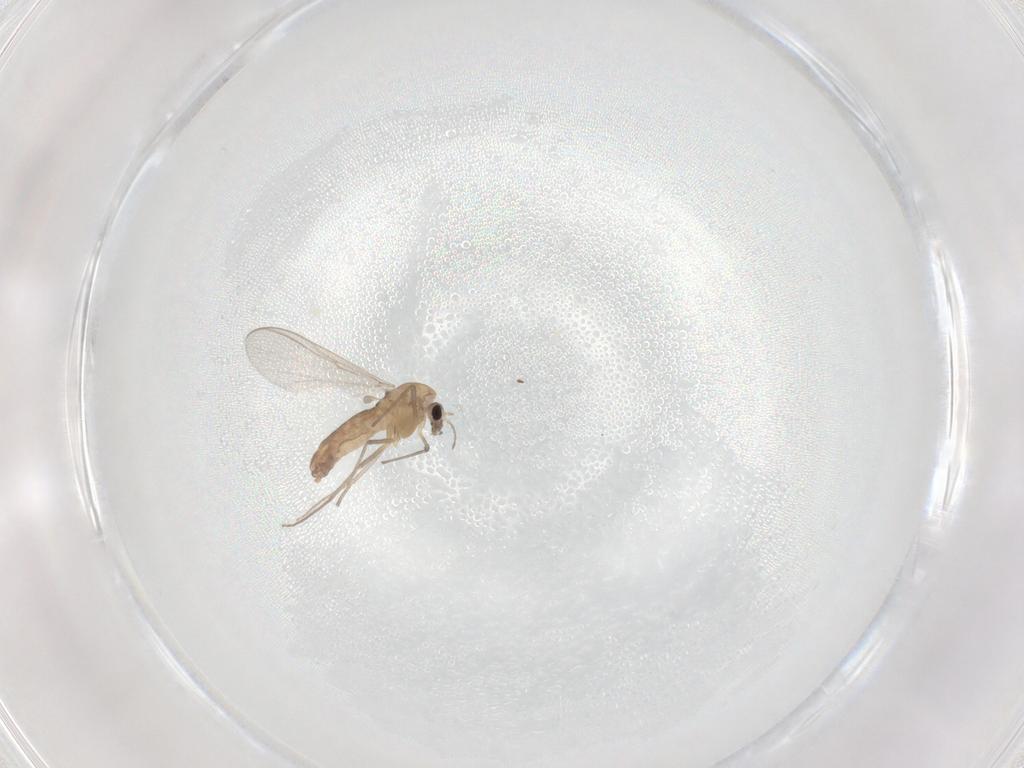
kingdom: Animalia
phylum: Arthropoda
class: Insecta
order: Diptera
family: Chironomidae
